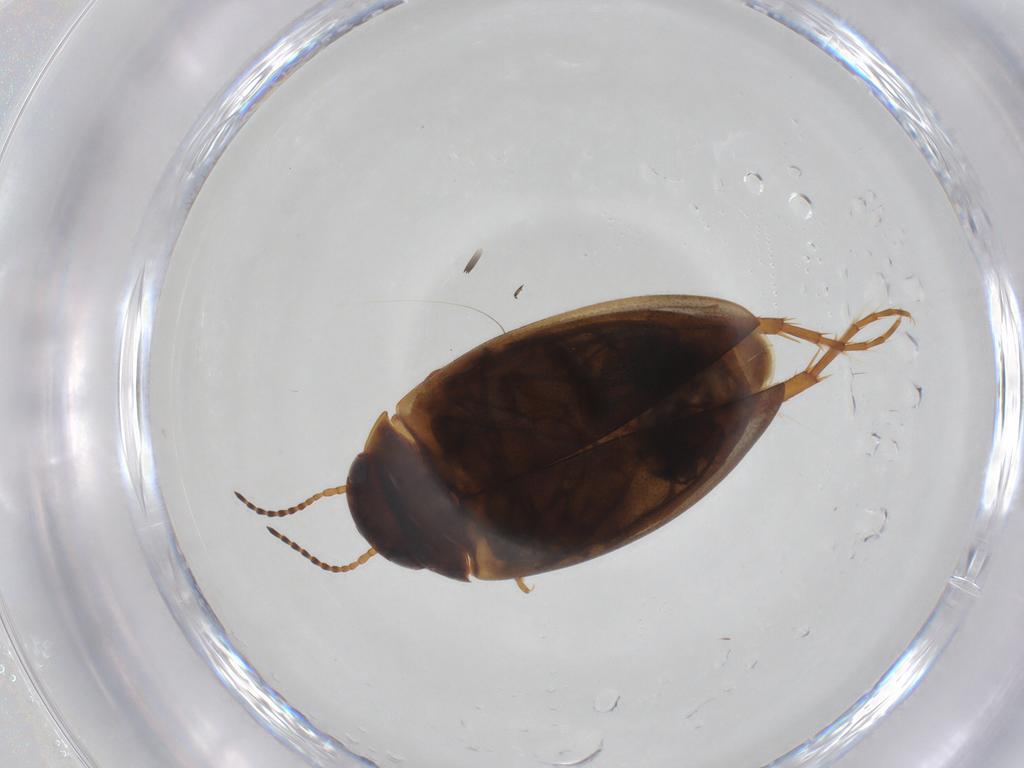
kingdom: Animalia
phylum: Arthropoda
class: Insecta
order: Coleoptera
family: Dytiscidae
